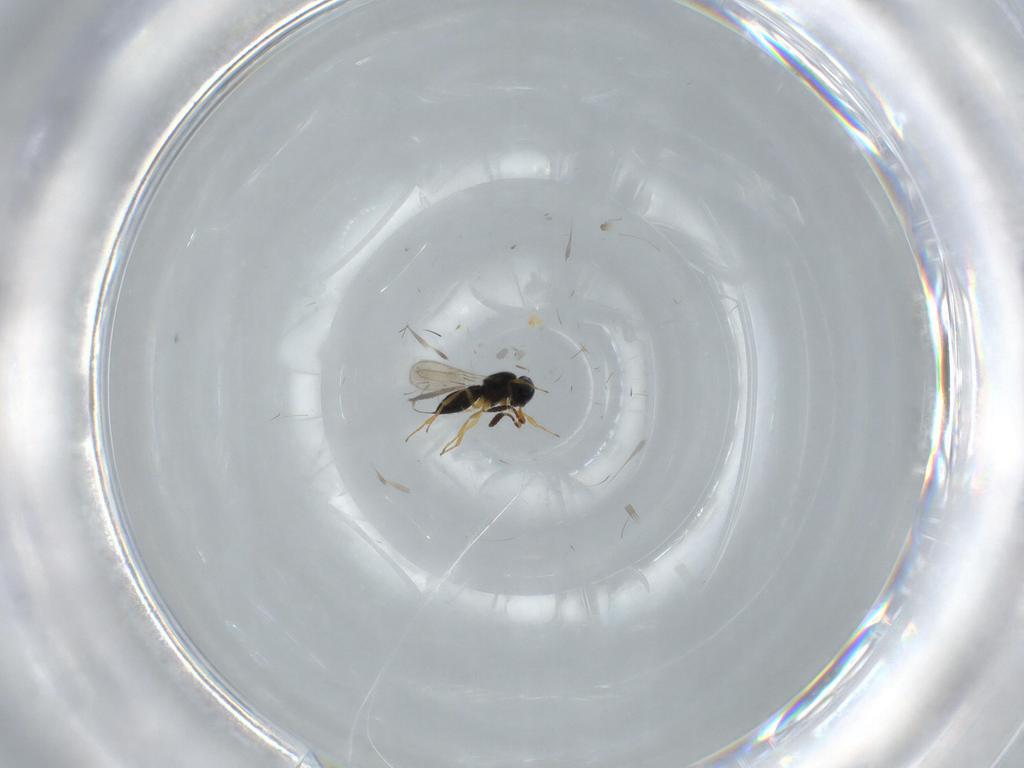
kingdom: Animalia
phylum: Arthropoda
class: Insecta
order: Hymenoptera
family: Scelionidae
